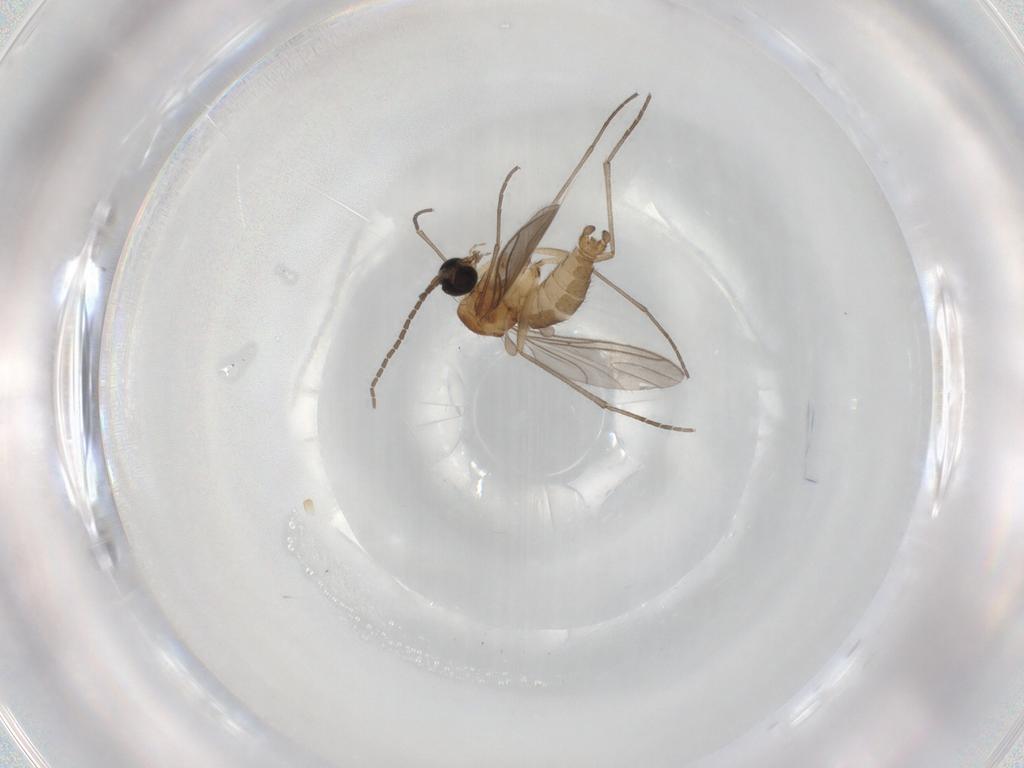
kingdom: Animalia
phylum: Arthropoda
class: Insecta
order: Diptera
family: Sciaridae
